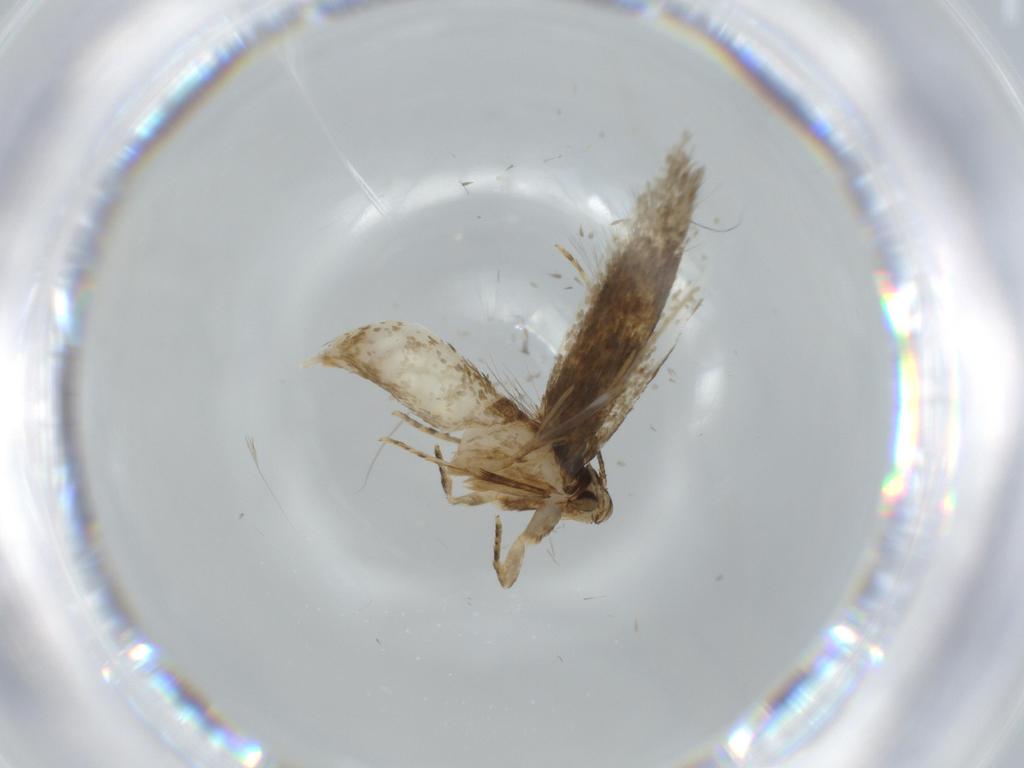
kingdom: Animalia
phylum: Arthropoda
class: Insecta
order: Lepidoptera
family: Tineidae
